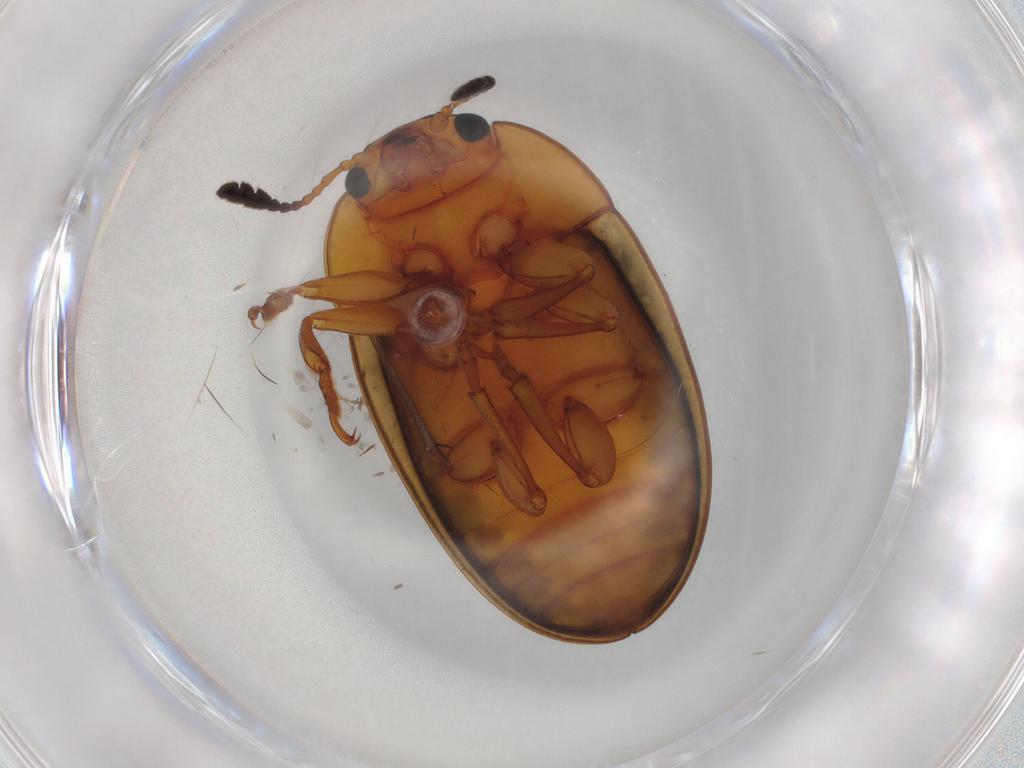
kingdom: Animalia
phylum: Arthropoda
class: Insecta
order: Coleoptera
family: Erotylidae
